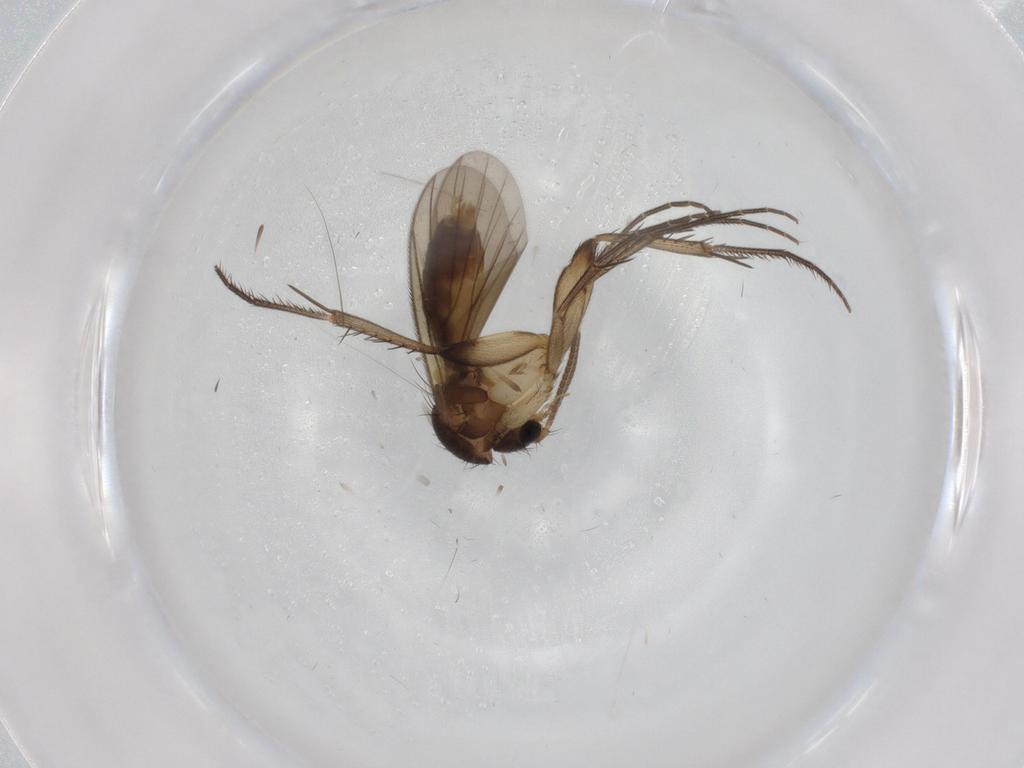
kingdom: Animalia
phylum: Arthropoda
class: Insecta
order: Diptera
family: Mycetophilidae
